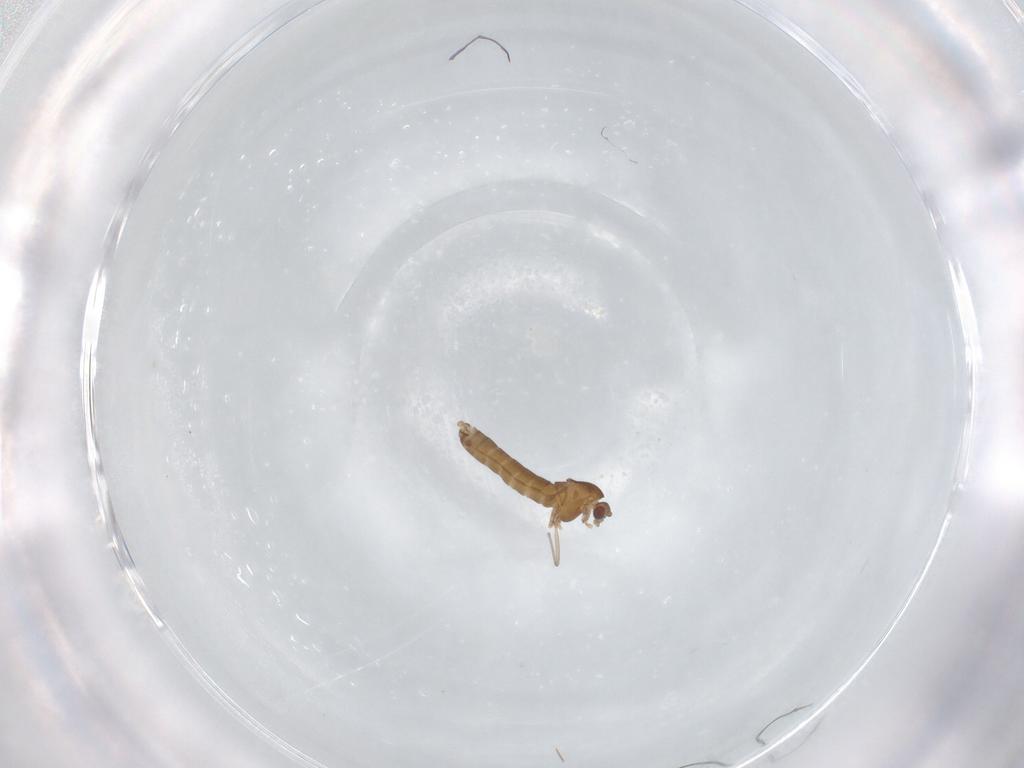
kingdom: Animalia
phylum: Arthropoda
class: Insecta
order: Diptera
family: Chironomidae
